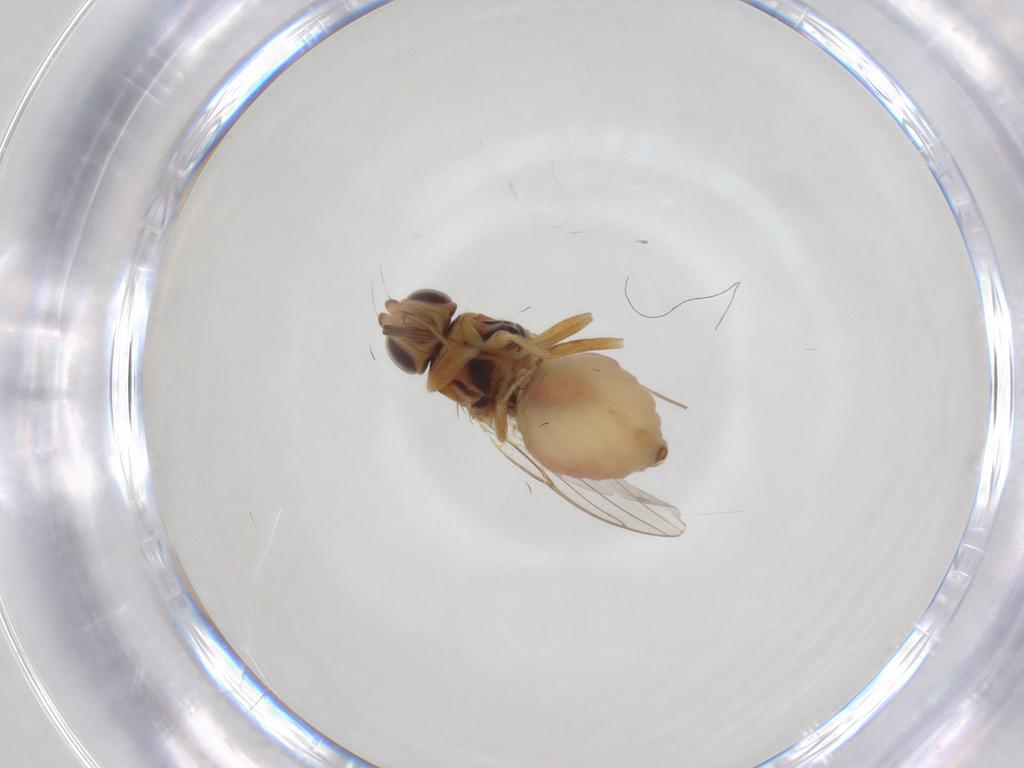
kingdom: Animalia
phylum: Arthropoda
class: Insecta
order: Diptera
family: Chloropidae
